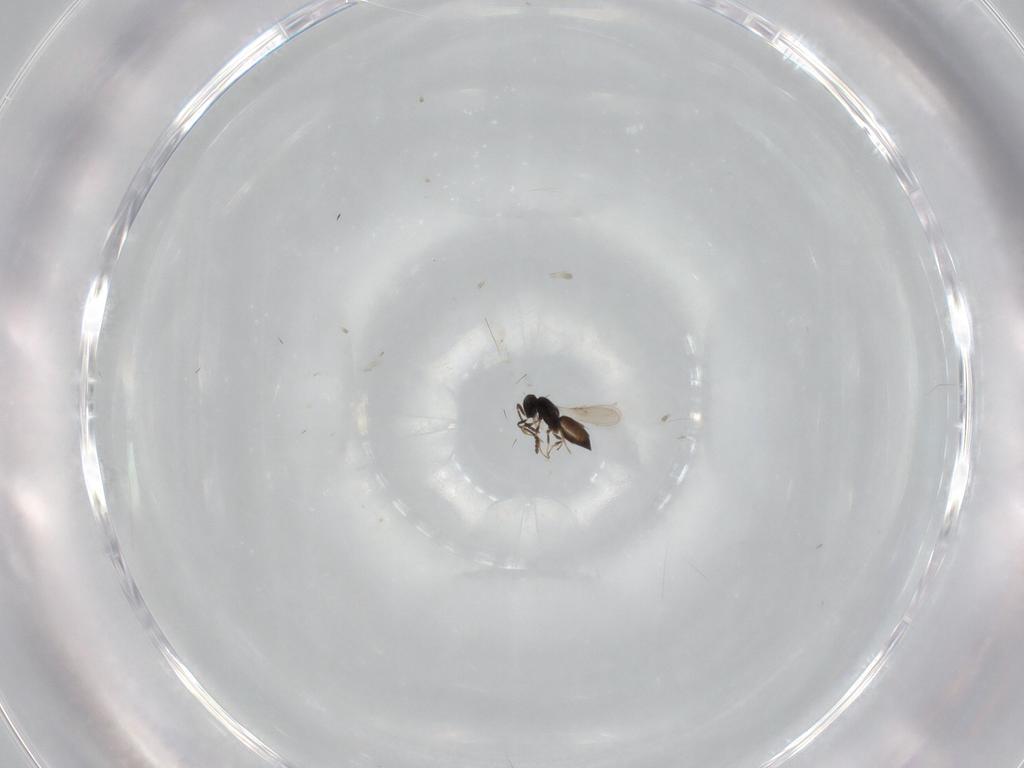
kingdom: Animalia
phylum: Arthropoda
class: Insecta
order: Hymenoptera
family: Scelionidae
